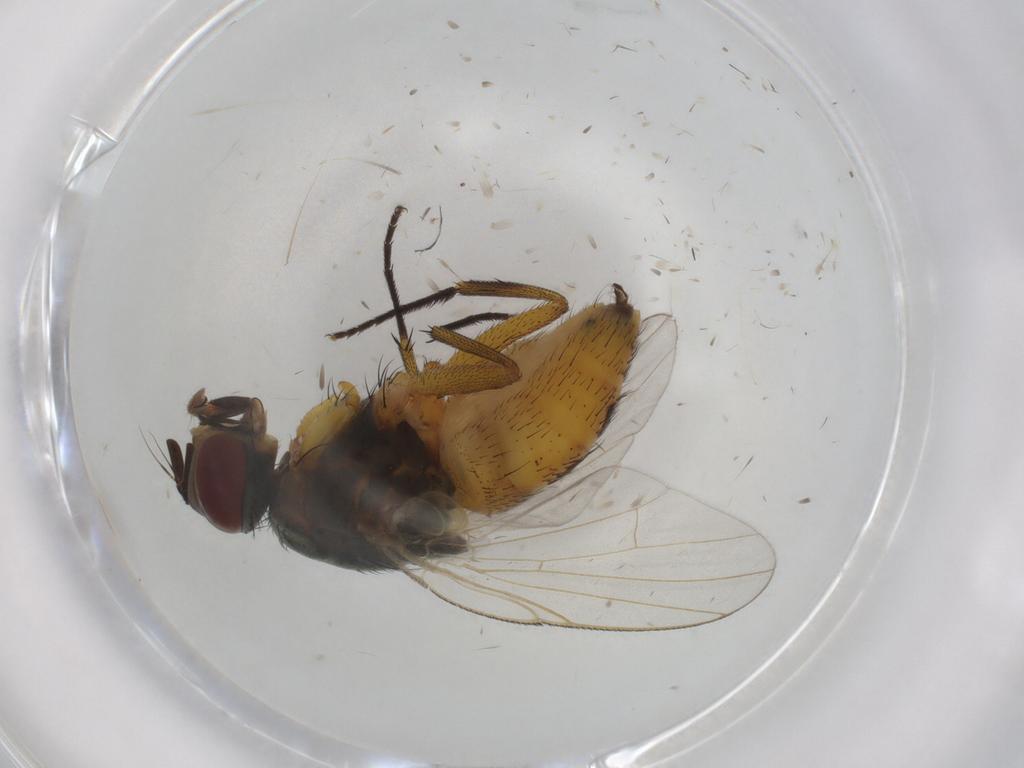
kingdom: Animalia
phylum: Arthropoda
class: Insecta
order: Diptera
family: Muscidae
